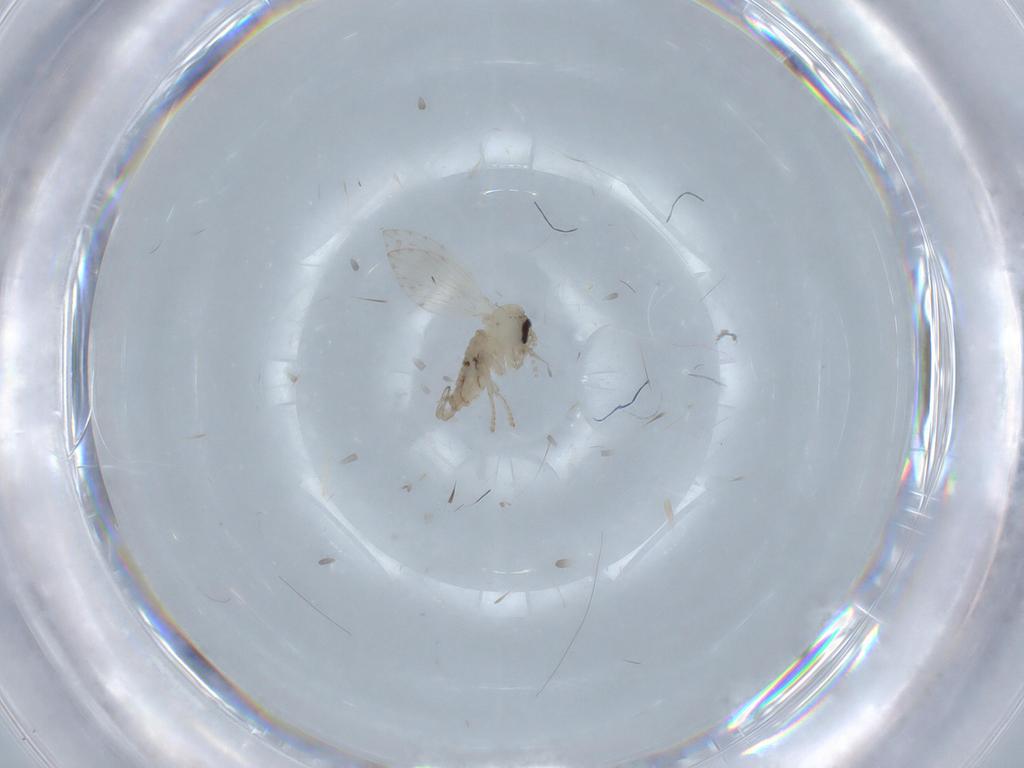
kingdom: Animalia
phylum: Arthropoda
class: Insecta
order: Diptera
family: Psychodidae
